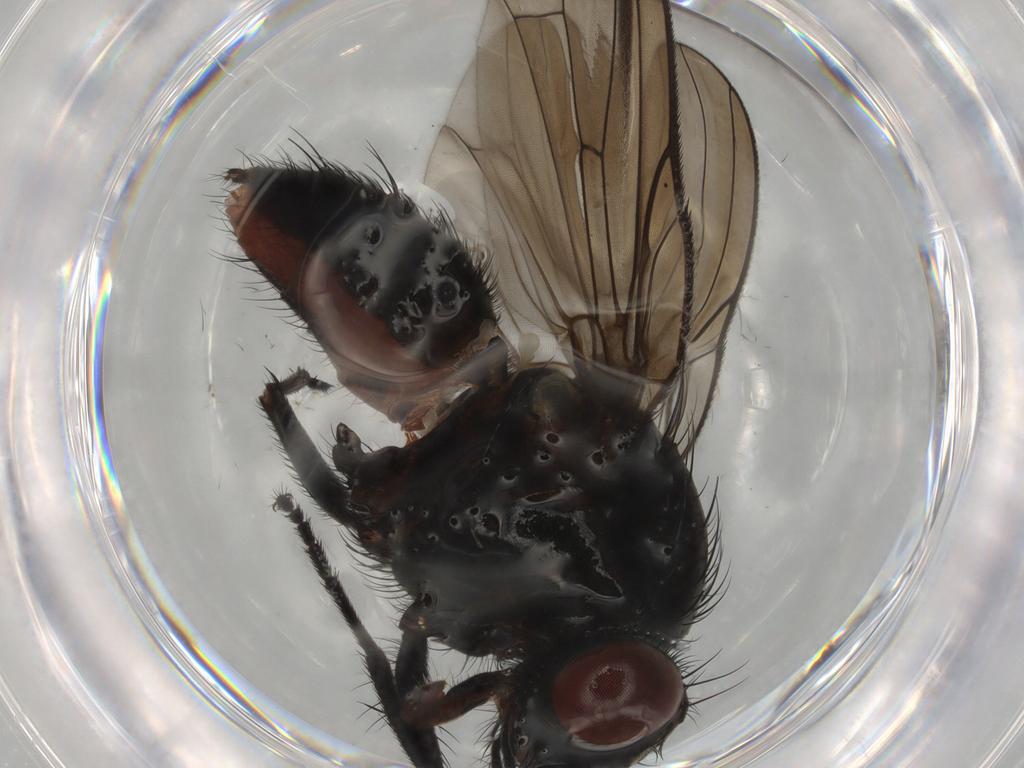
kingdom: Animalia
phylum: Arthropoda
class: Insecta
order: Diptera
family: Anthomyiidae
